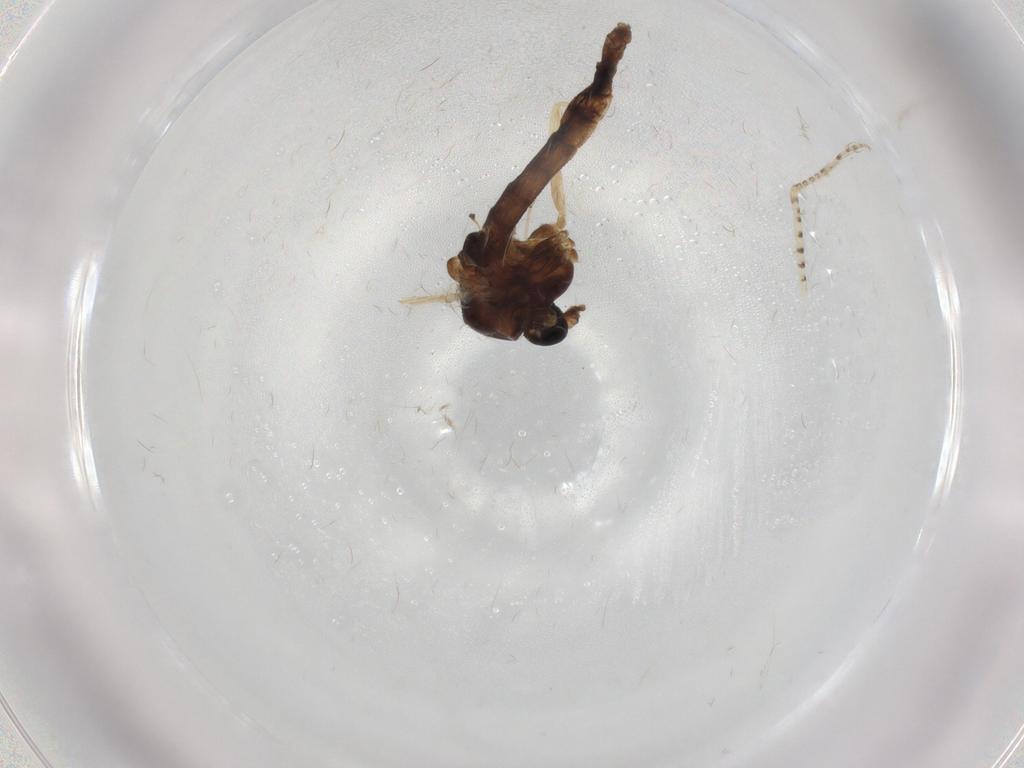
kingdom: Animalia
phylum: Arthropoda
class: Insecta
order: Diptera
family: Chironomidae
